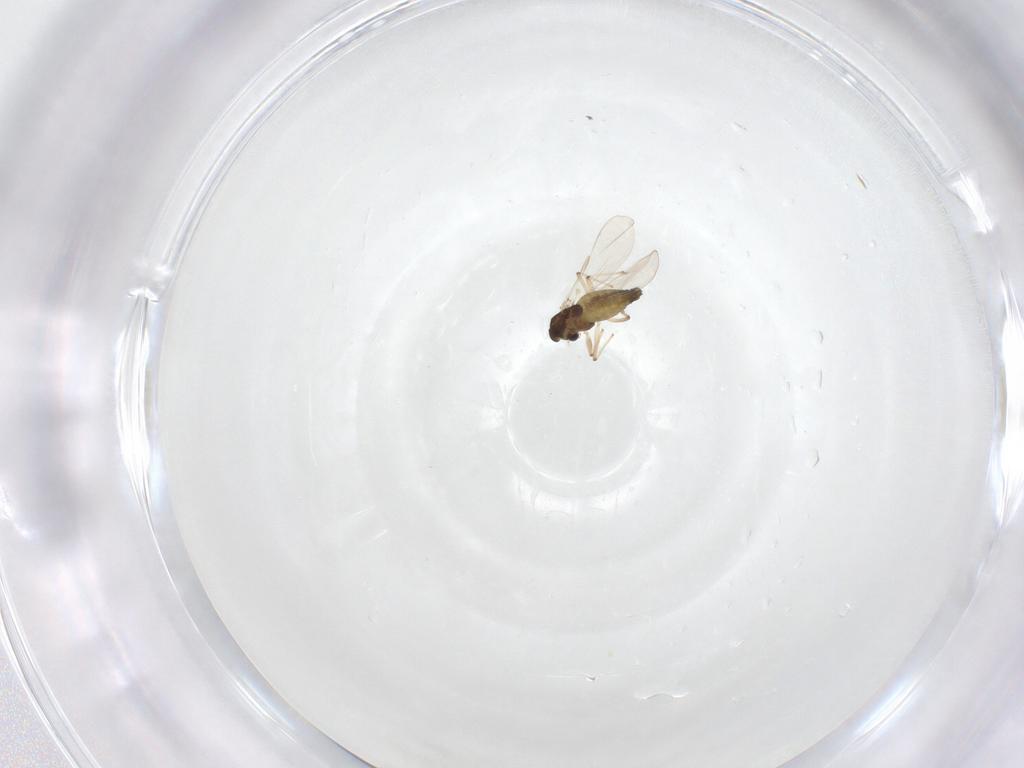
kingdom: Animalia
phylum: Arthropoda
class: Insecta
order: Diptera
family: Chironomidae
